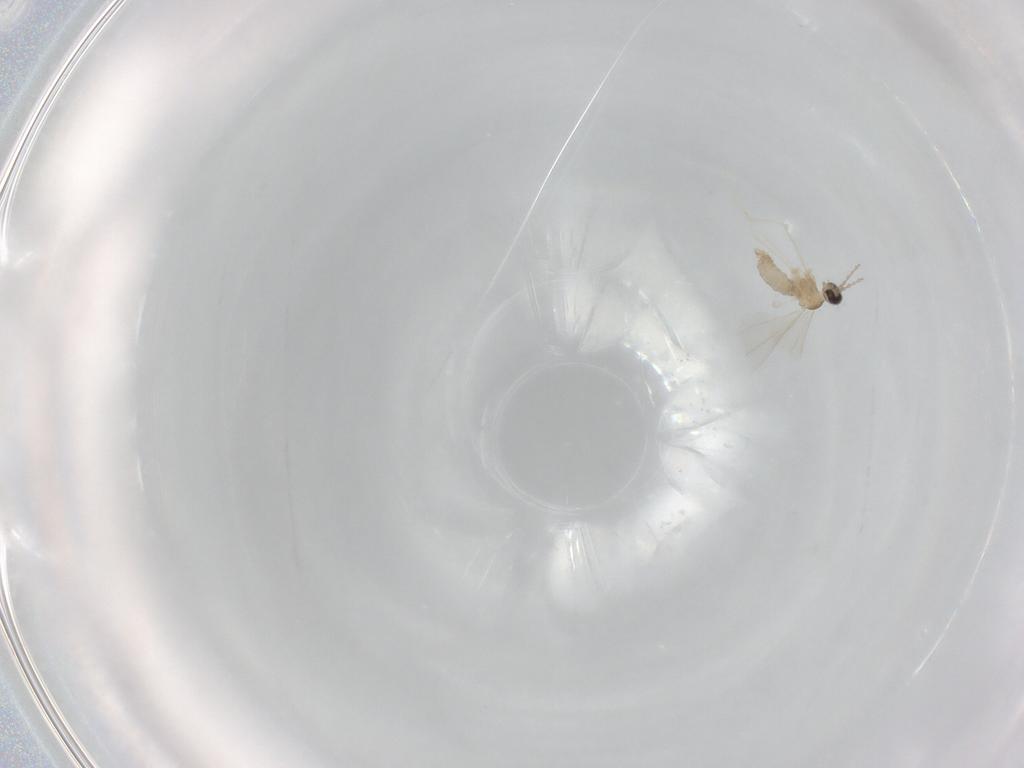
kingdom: Animalia
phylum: Arthropoda
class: Insecta
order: Diptera
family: Cecidomyiidae
